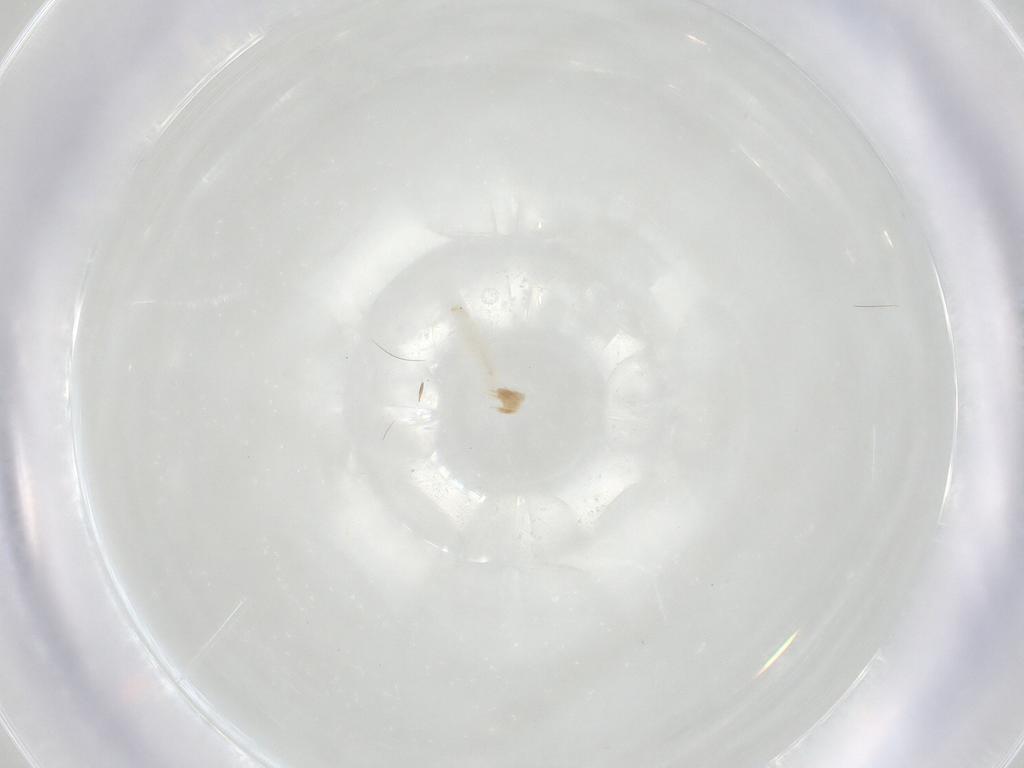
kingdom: Animalia
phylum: Arthropoda
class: Collembola
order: Entomobryomorpha
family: Isotomidae
